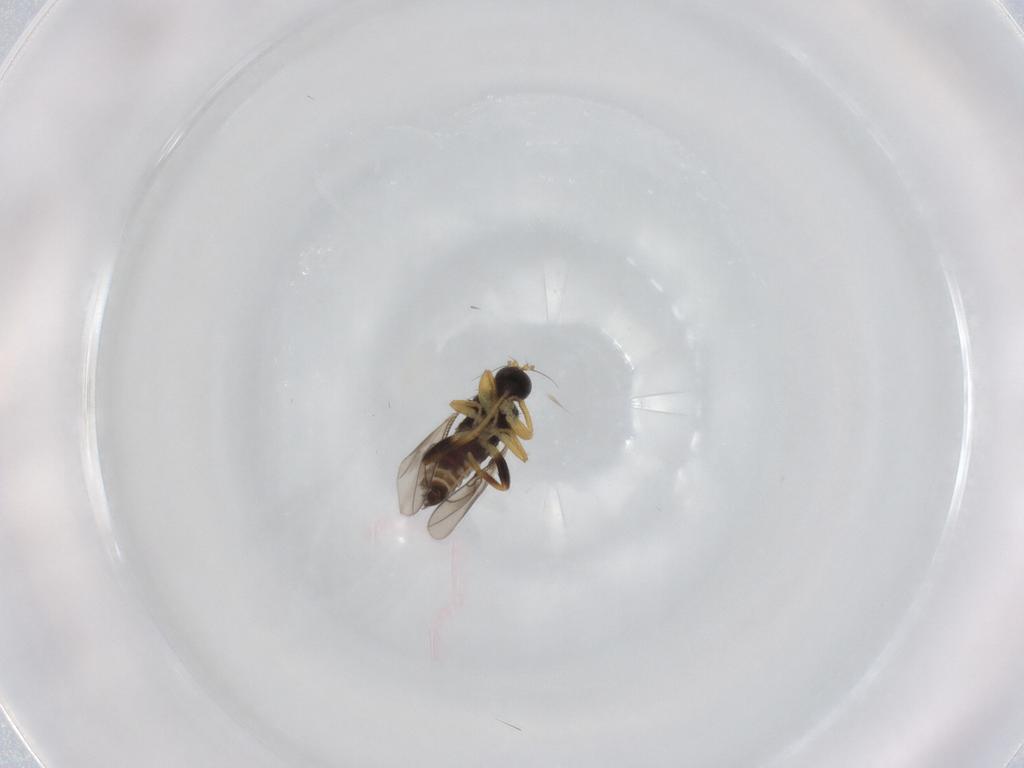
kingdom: Animalia
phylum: Arthropoda
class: Insecta
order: Diptera
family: Hybotidae
